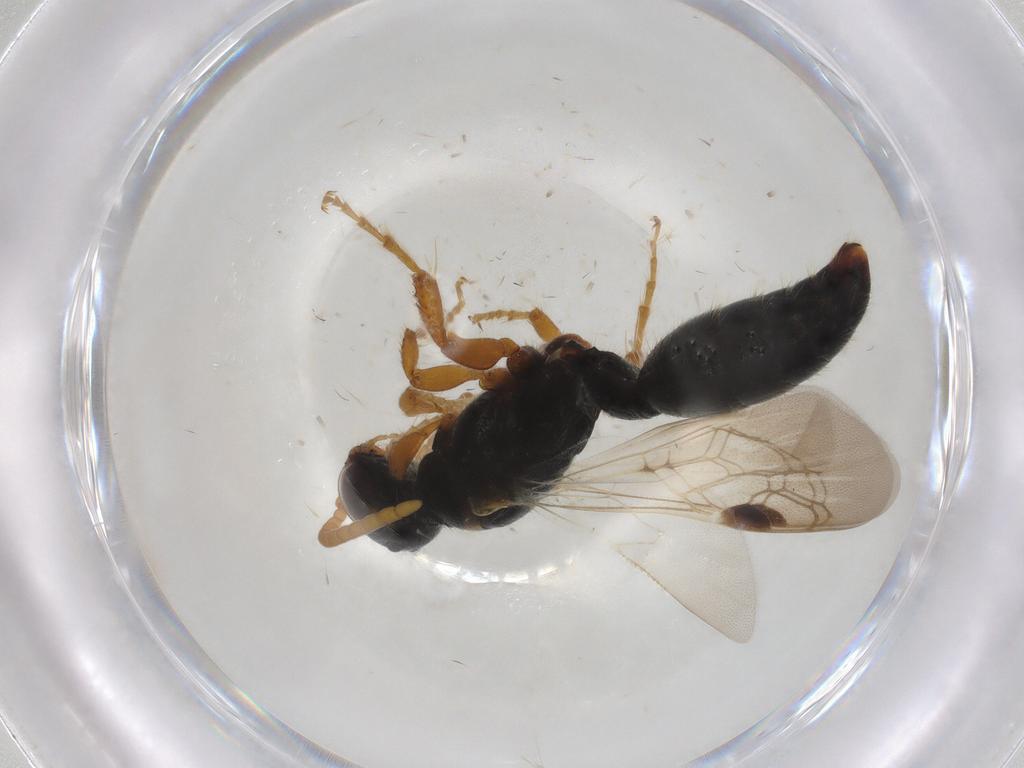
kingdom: Animalia
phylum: Arthropoda
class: Insecta
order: Hymenoptera
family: Tiphiidae
